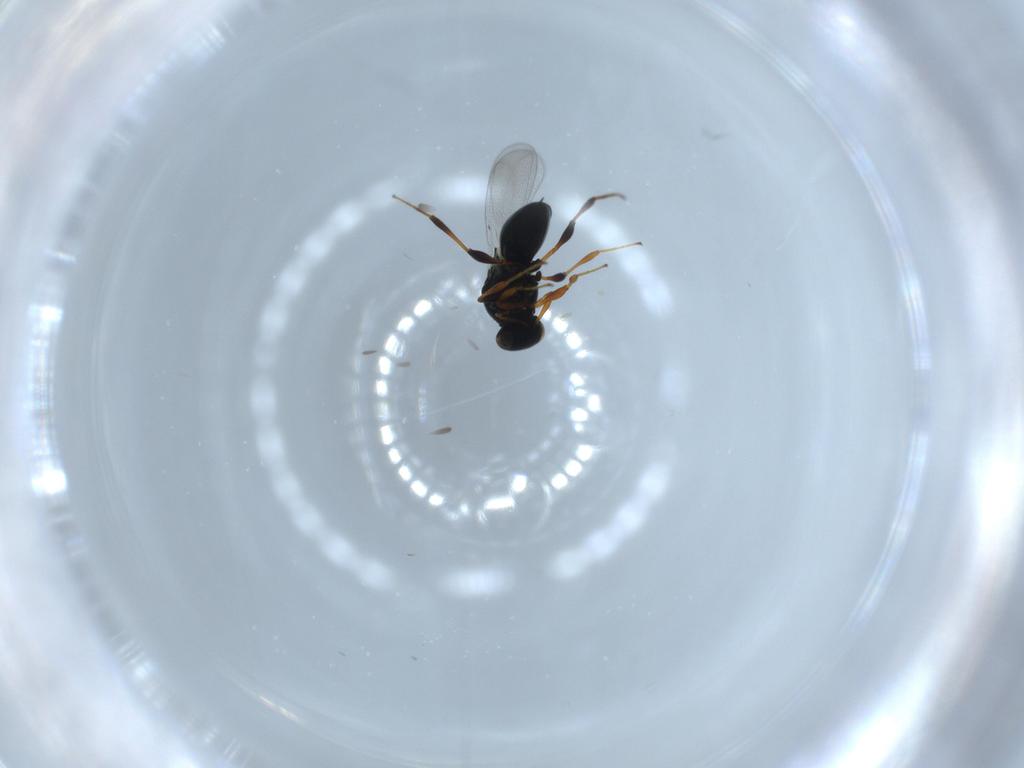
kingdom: Animalia
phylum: Arthropoda
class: Insecta
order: Hymenoptera
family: Platygastridae
